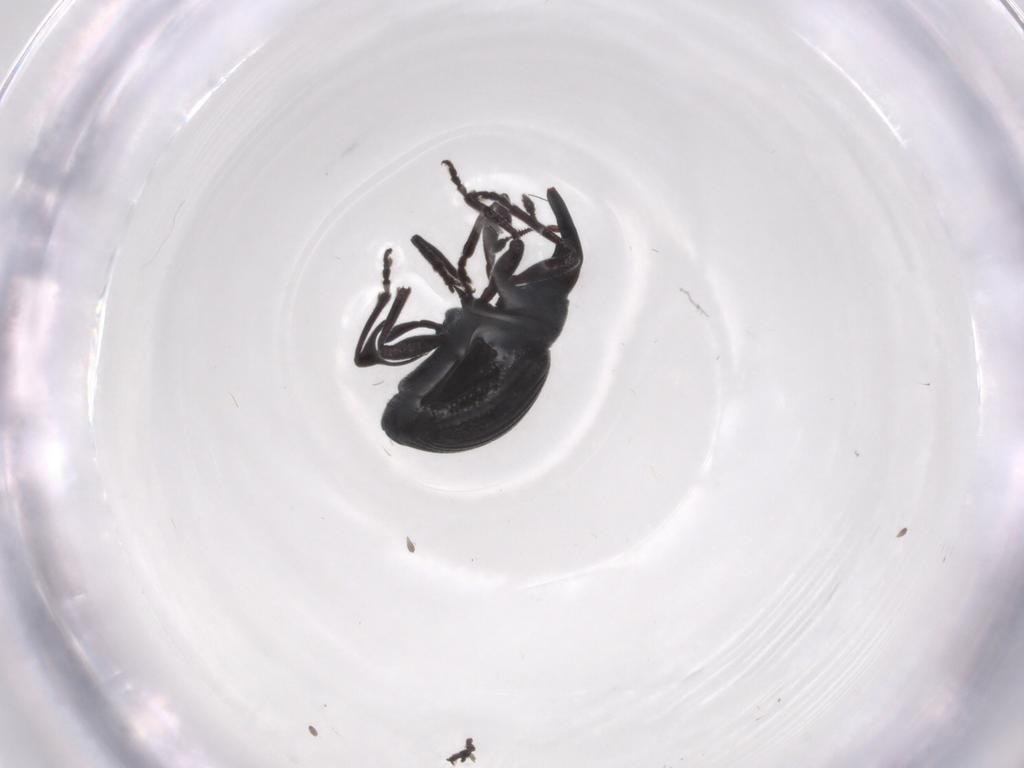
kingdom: Animalia
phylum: Arthropoda
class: Insecta
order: Coleoptera
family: Brentidae
